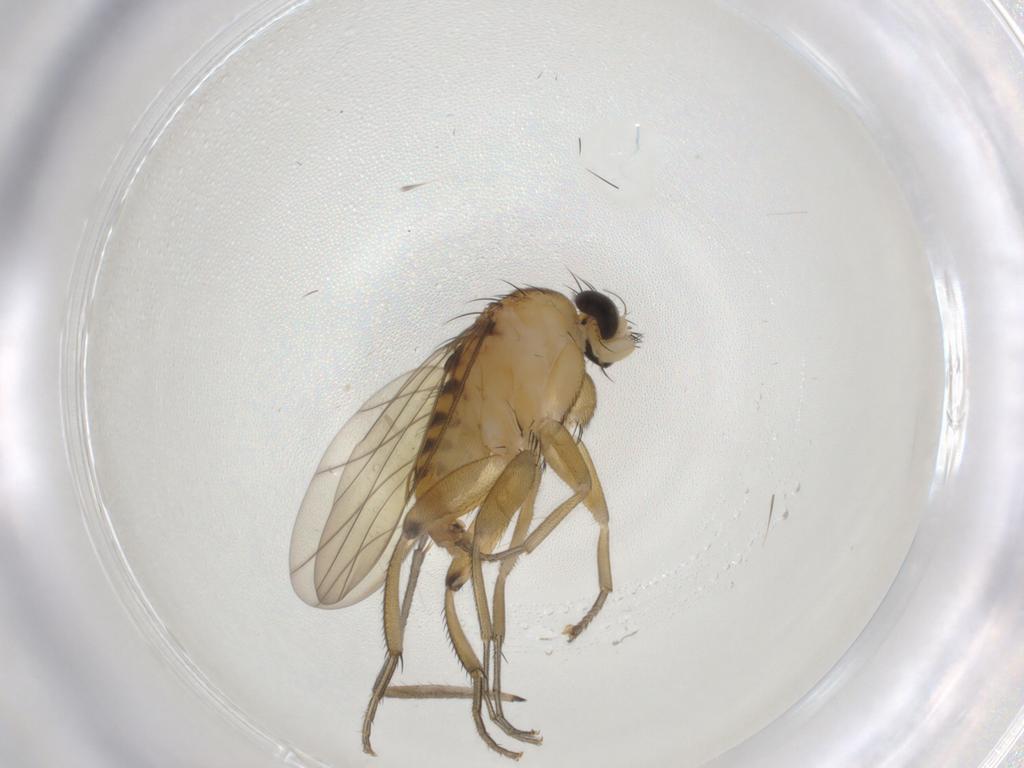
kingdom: Animalia
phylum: Arthropoda
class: Insecta
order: Diptera
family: Phoridae
